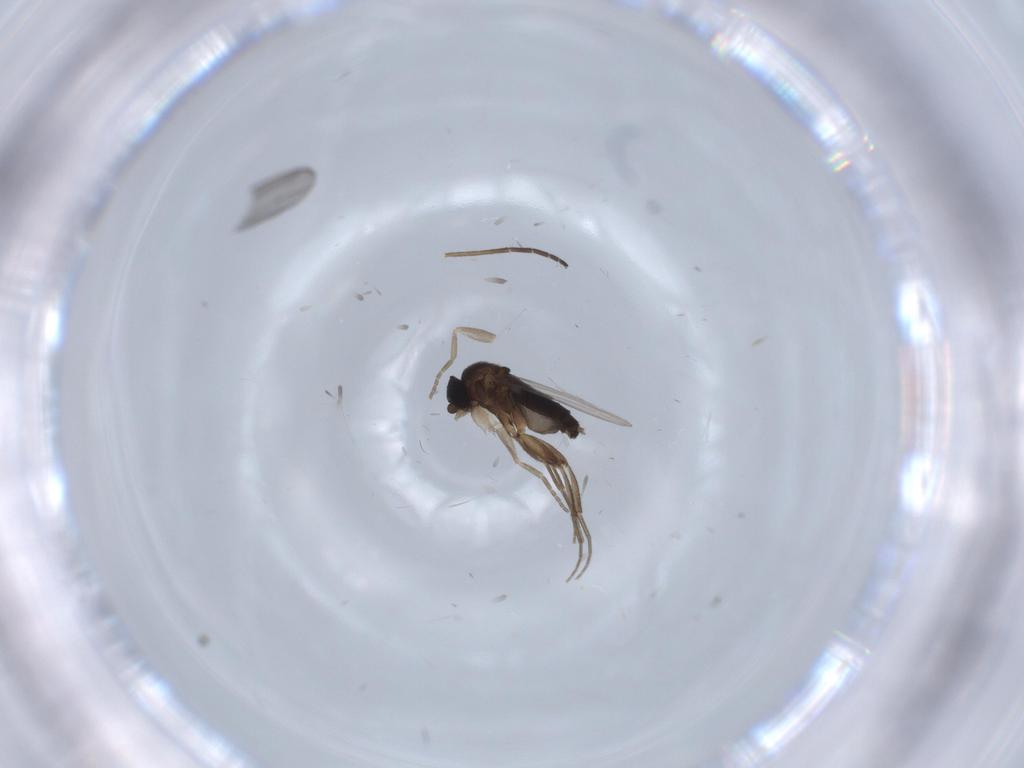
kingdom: Animalia
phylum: Arthropoda
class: Insecta
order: Diptera
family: Phoridae
